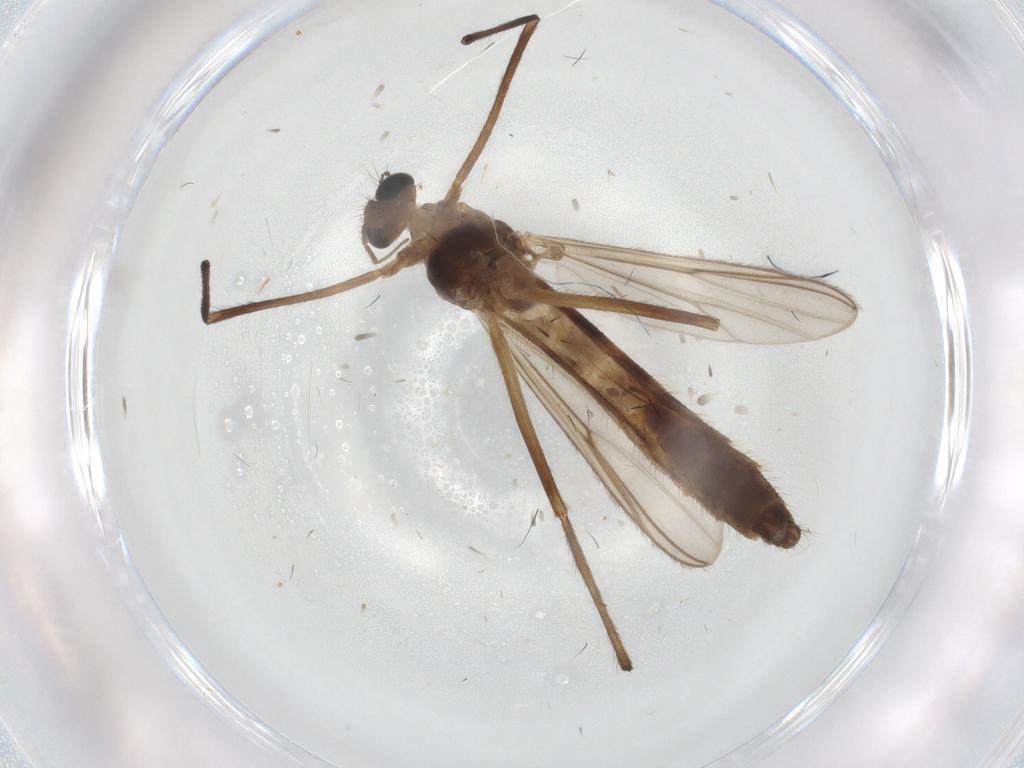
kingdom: Animalia
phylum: Arthropoda
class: Insecta
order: Diptera
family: Chironomidae
